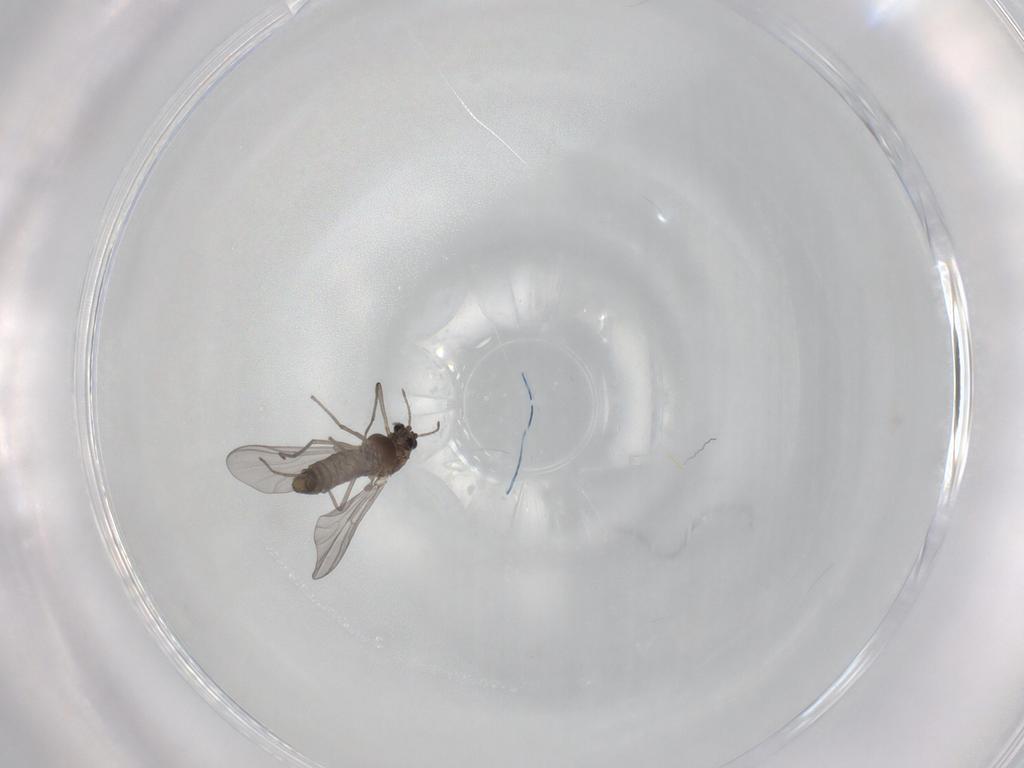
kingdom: Animalia
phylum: Arthropoda
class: Insecta
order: Diptera
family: Chironomidae
